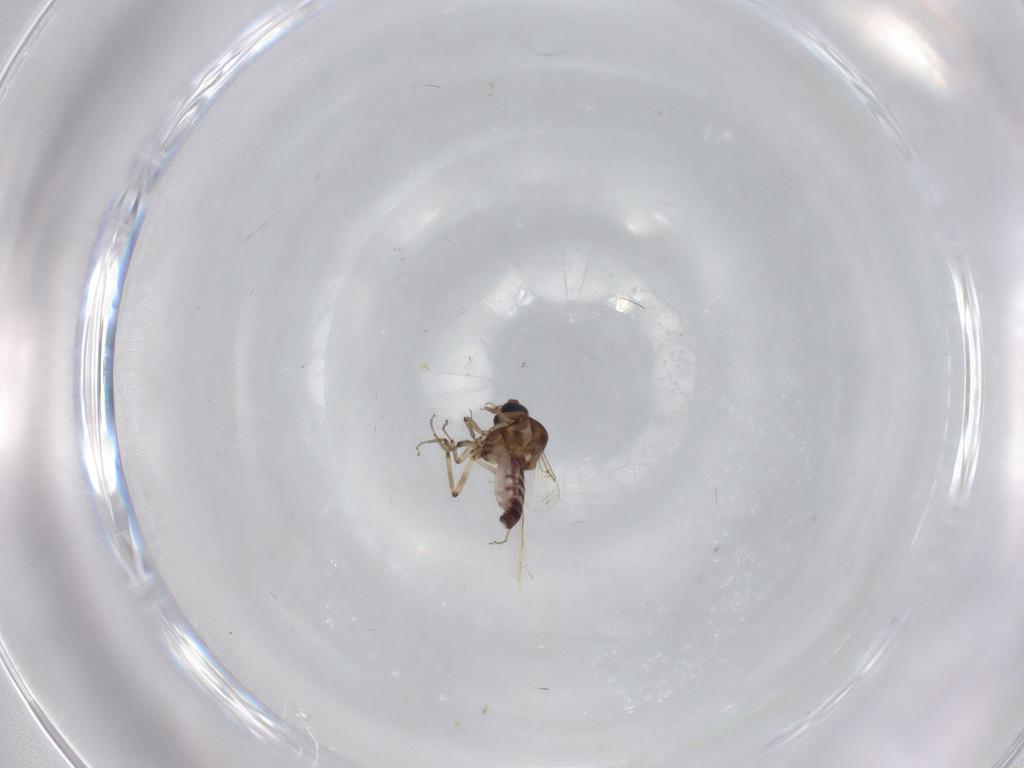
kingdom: Animalia
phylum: Arthropoda
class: Insecta
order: Diptera
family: Ceratopogonidae
